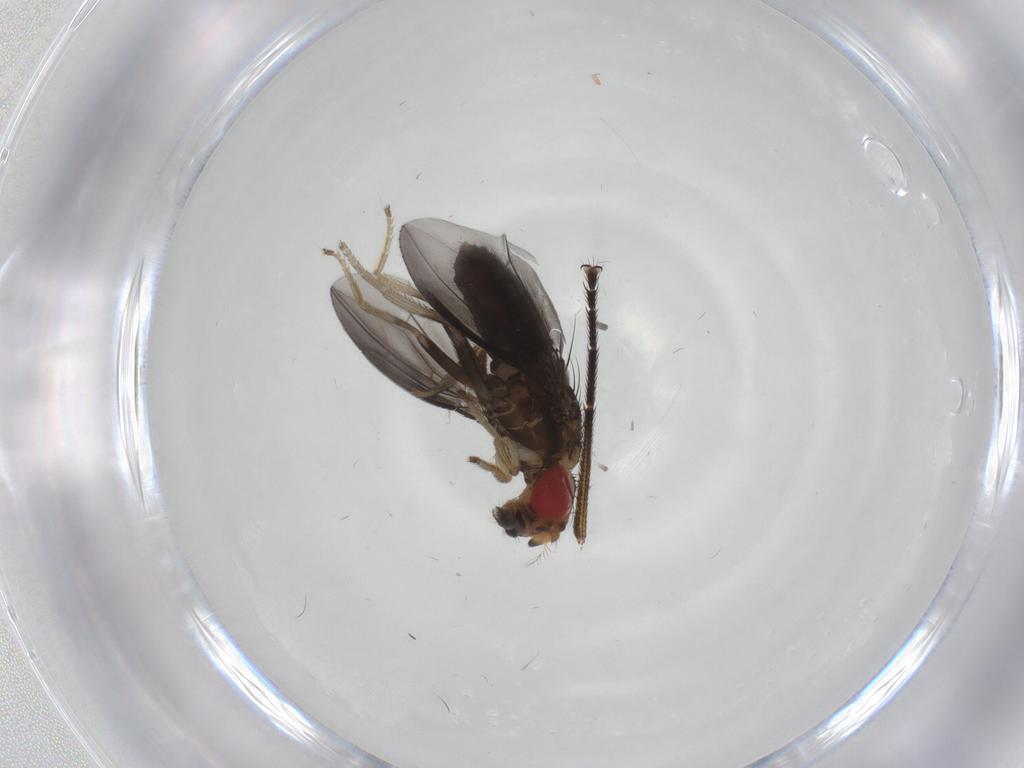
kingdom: Animalia
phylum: Arthropoda
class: Insecta
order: Diptera
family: Drosophilidae
